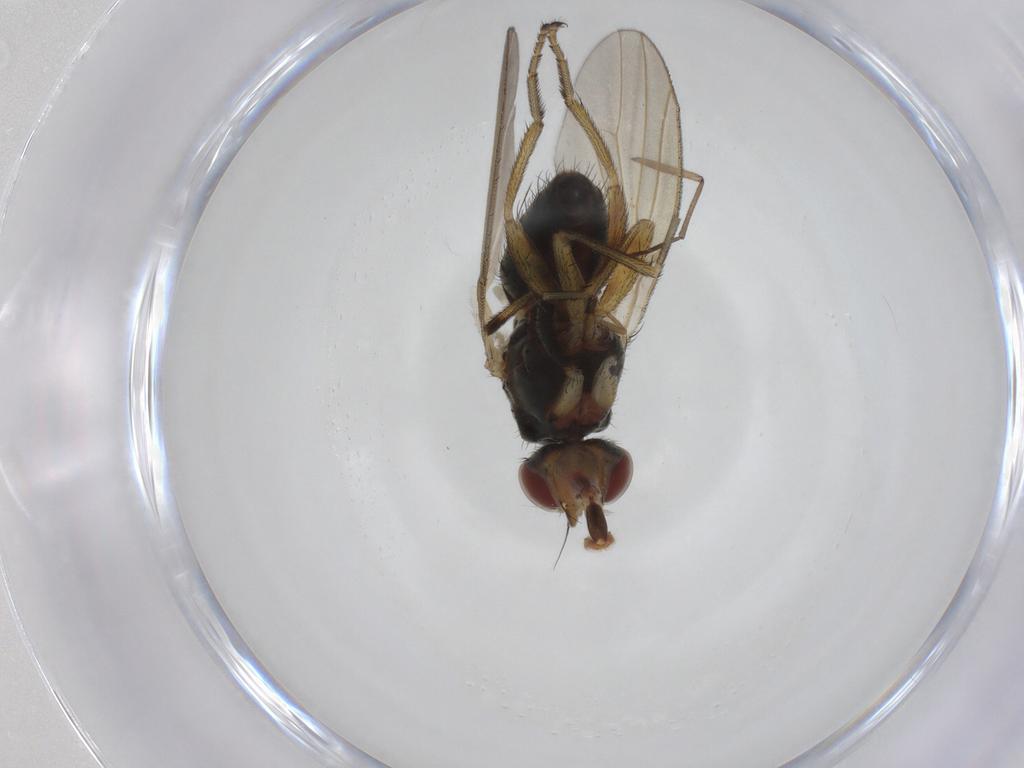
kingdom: Animalia
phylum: Arthropoda
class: Insecta
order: Diptera
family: Ulidiidae
